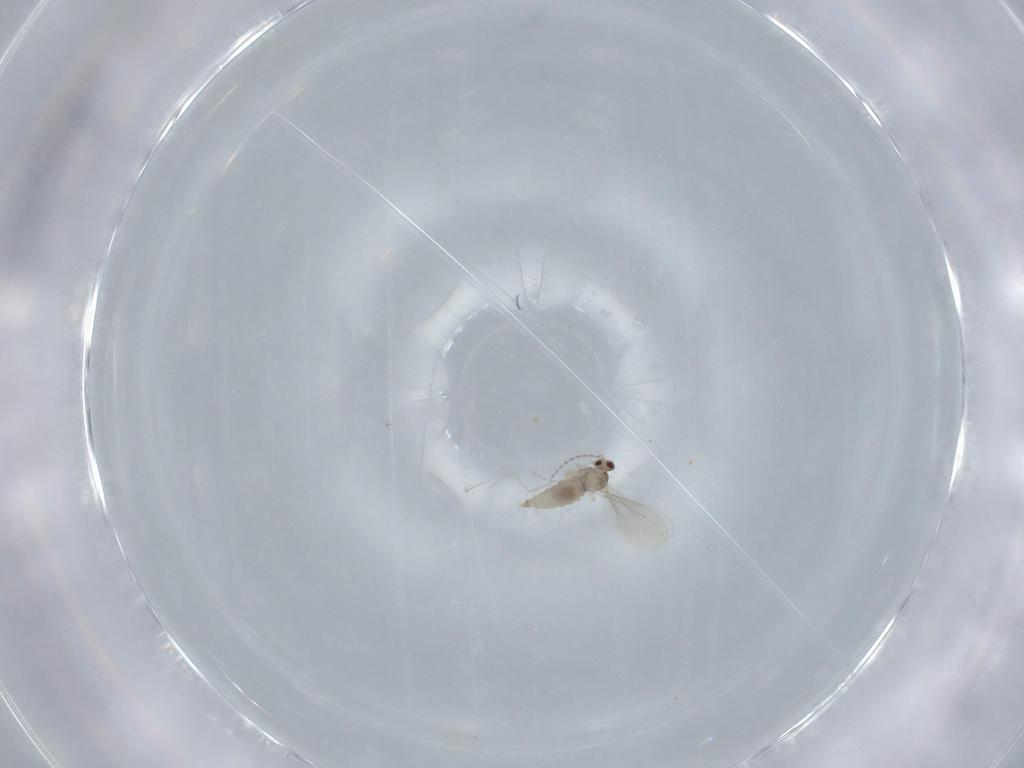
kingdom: Animalia
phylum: Arthropoda
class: Insecta
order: Diptera
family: Cecidomyiidae
